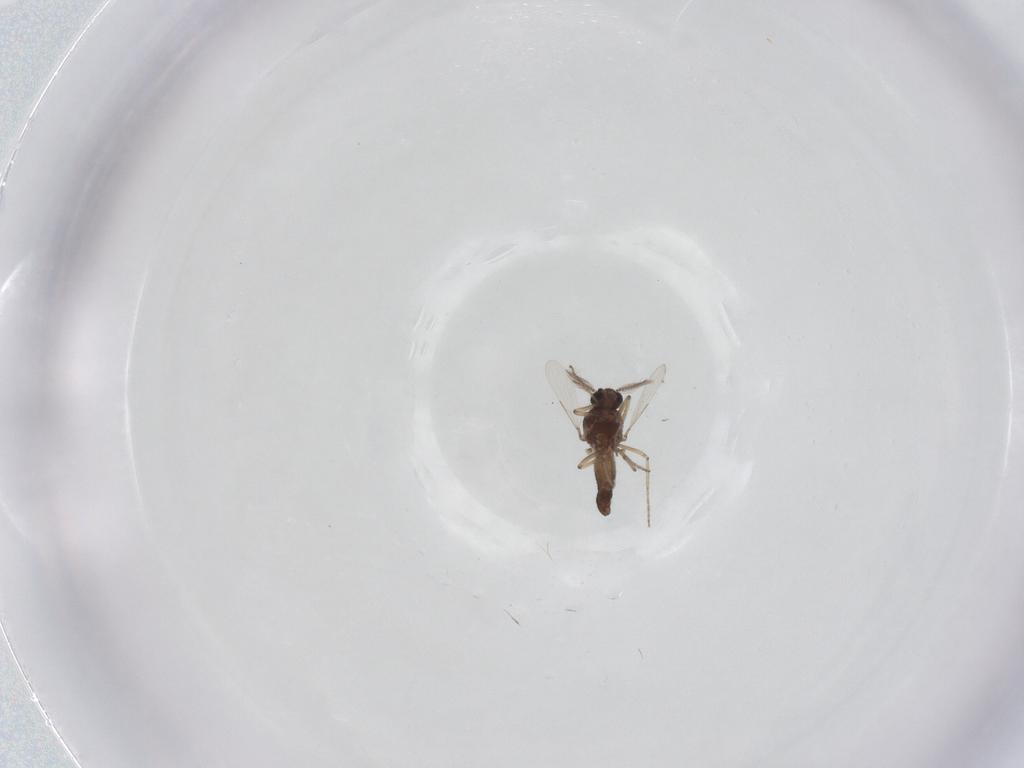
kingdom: Animalia
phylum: Arthropoda
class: Insecta
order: Diptera
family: Ceratopogonidae
